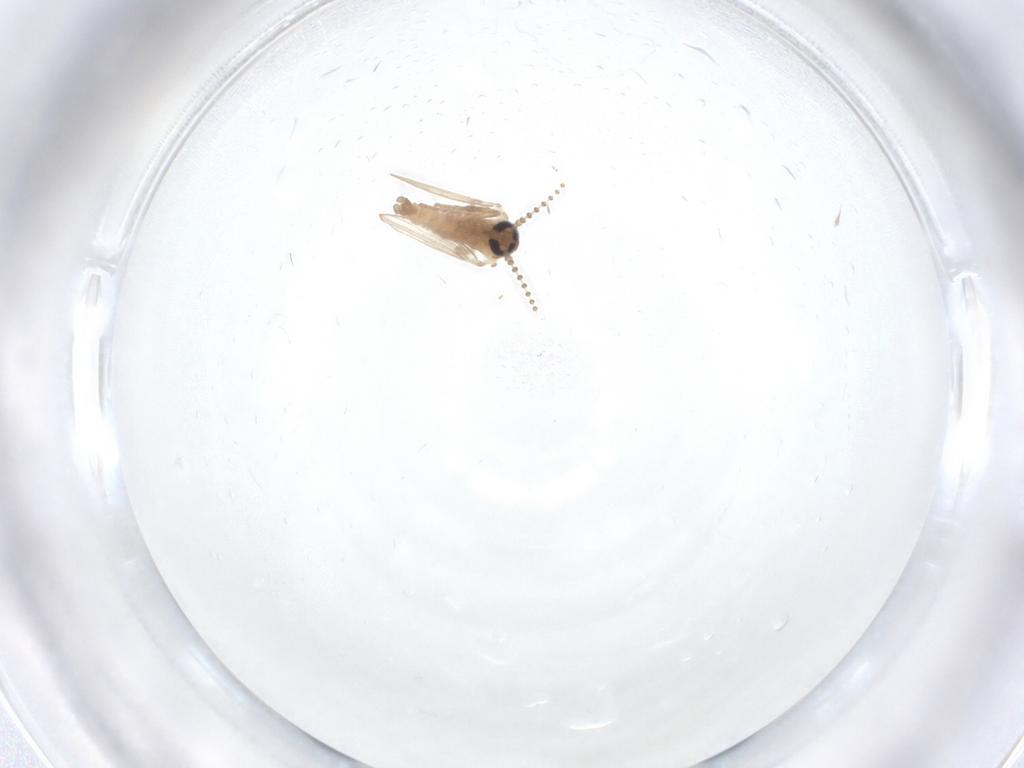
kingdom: Animalia
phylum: Arthropoda
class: Insecta
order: Diptera
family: Psychodidae
